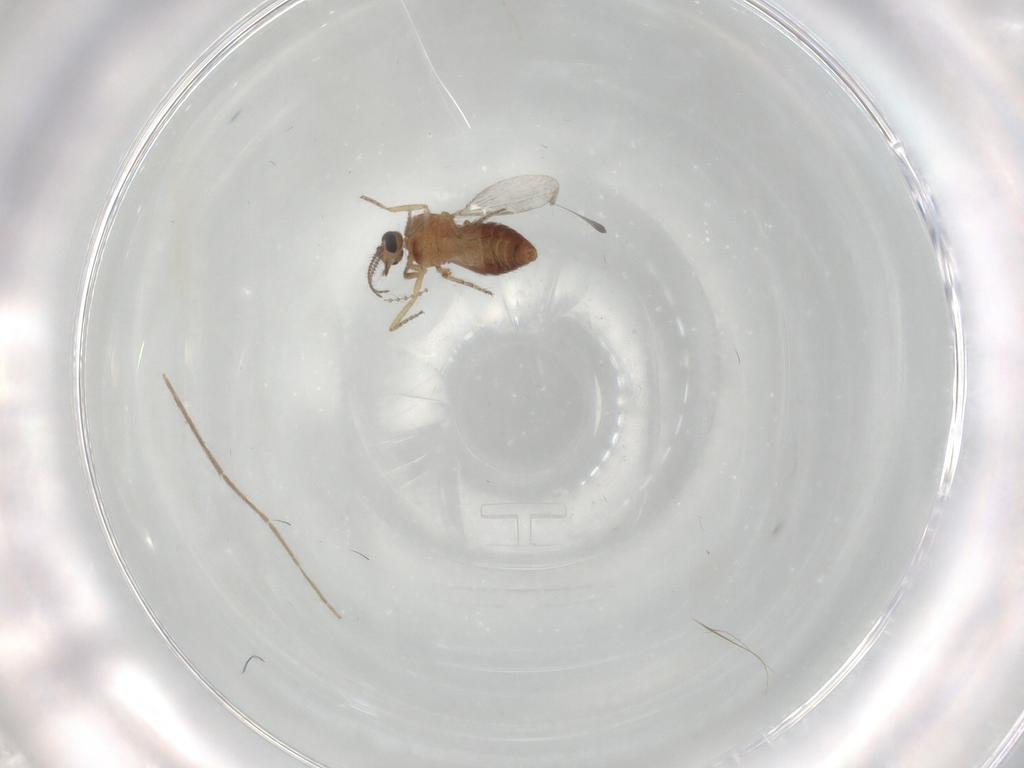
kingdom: Animalia
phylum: Arthropoda
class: Insecta
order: Diptera
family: Ceratopogonidae
